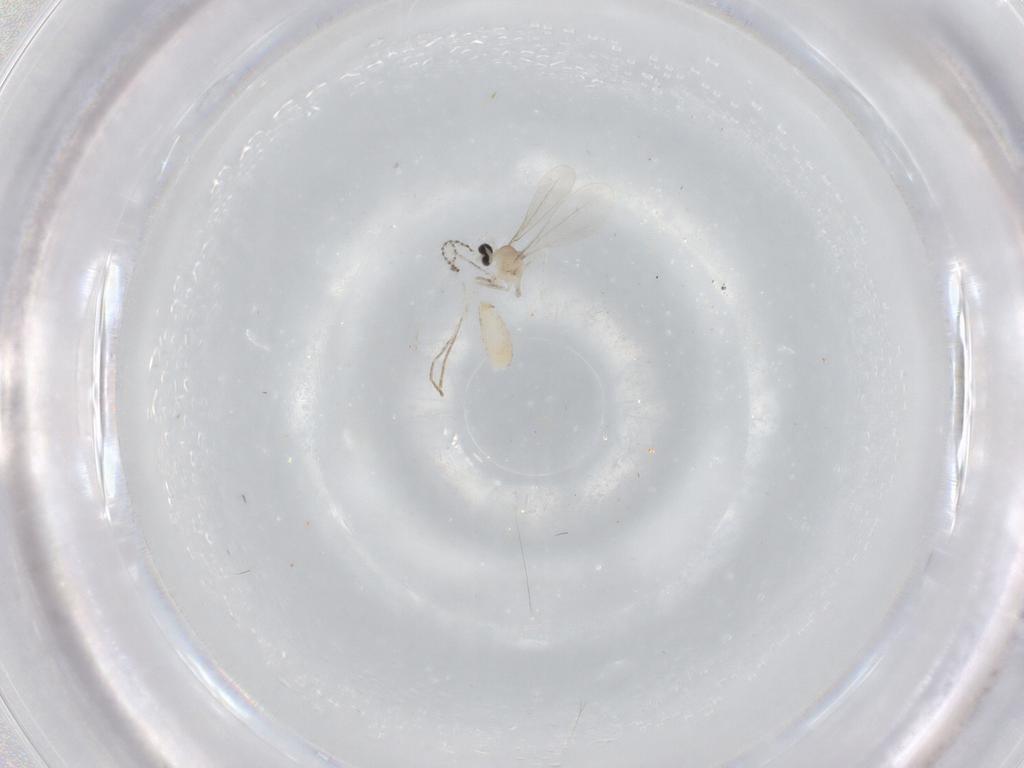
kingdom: Animalia
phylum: Arthropoda
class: Insecta
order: Diptera
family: Cecidomyiidae
